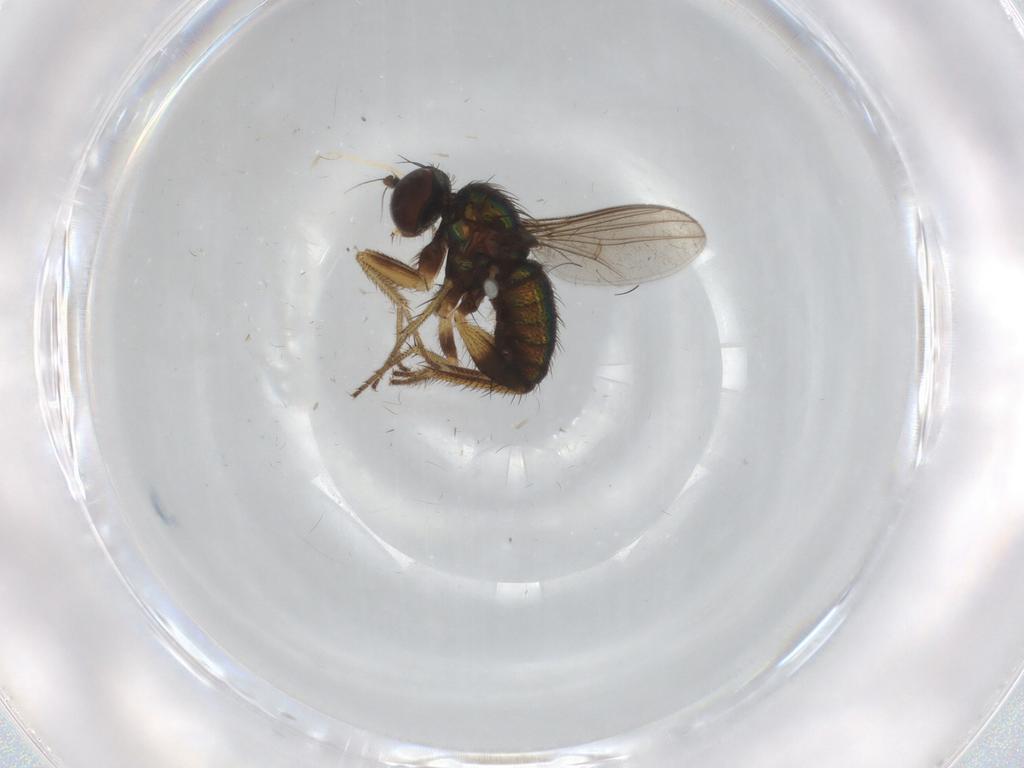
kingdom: Animalia
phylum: Arthropoda
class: Insecta
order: Diptera
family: Dolichopodidae
